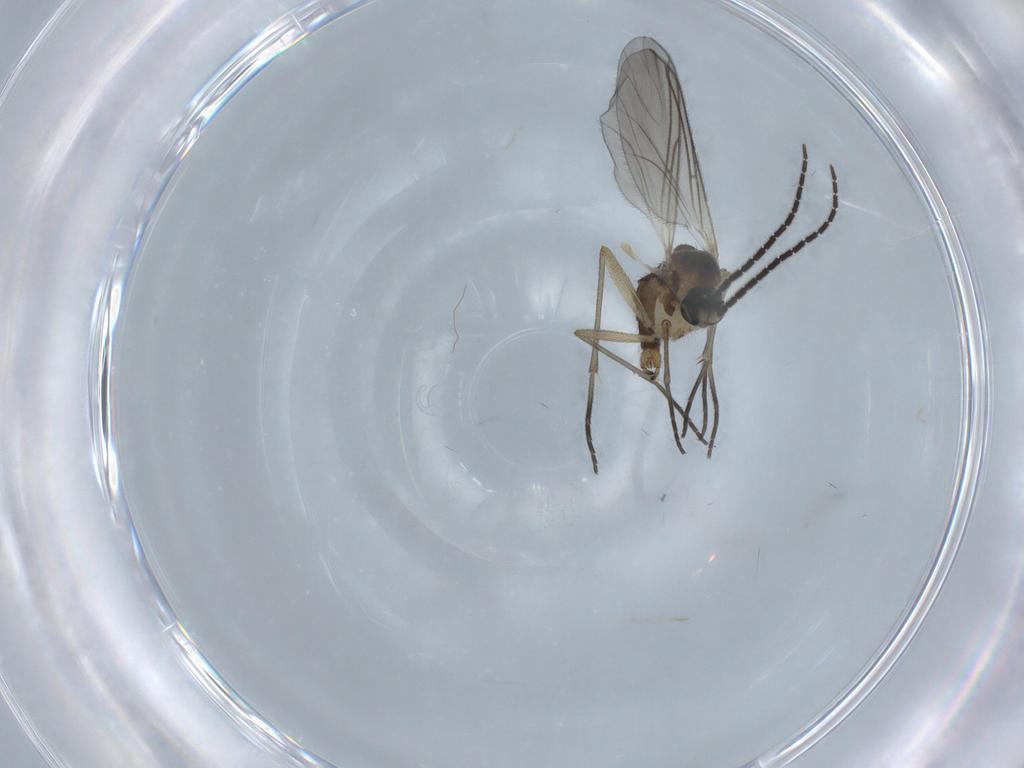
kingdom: Animalia
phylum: Arthropoda
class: Insecta
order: Diptera
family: Sciaridae
